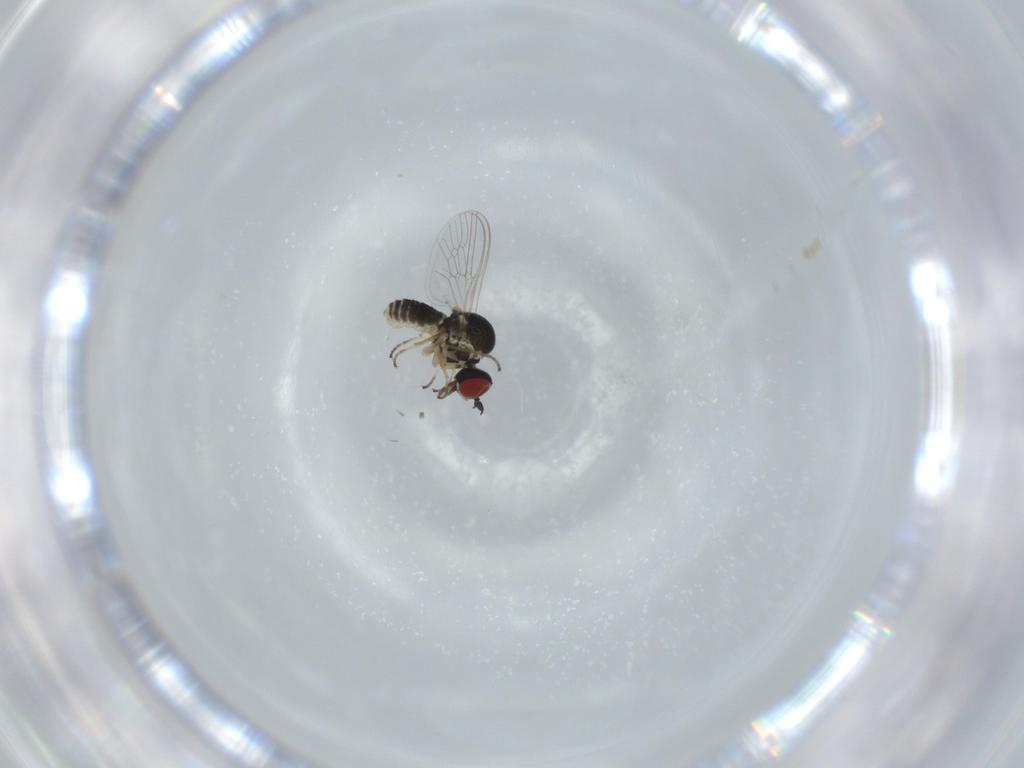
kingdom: Animalia
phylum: Arthropoda
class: Insecta
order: Diptera
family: Bombyliidae
